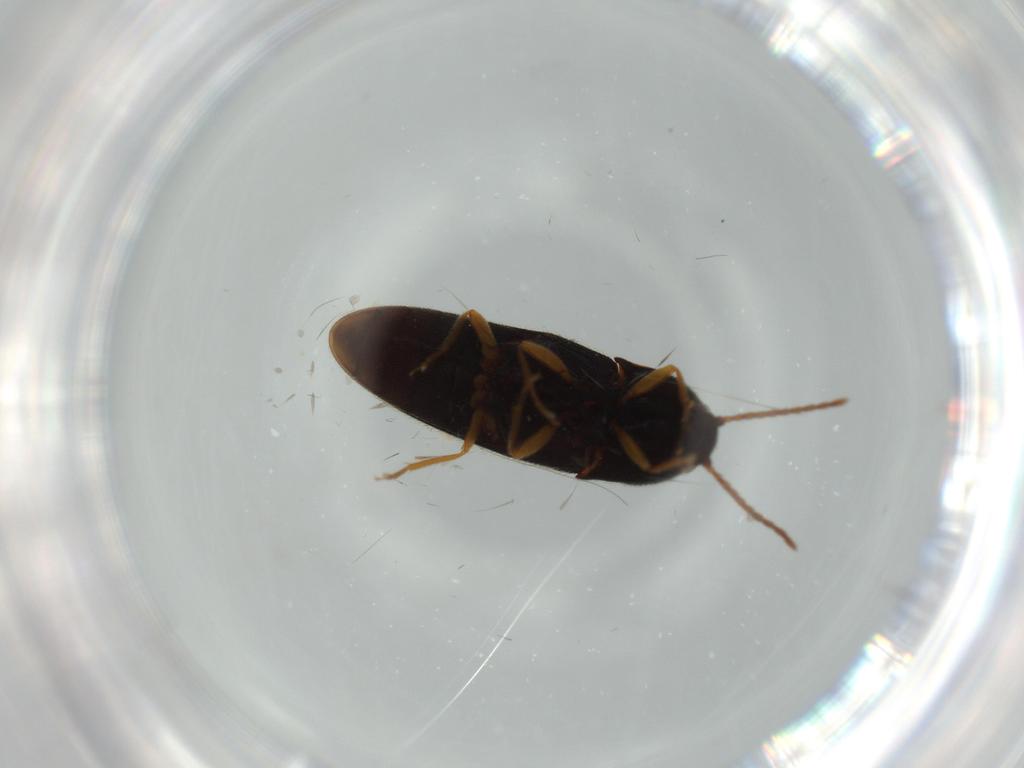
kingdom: Animalia
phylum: Arthropoda
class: Insecta
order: Coleoptera
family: Elateridae
